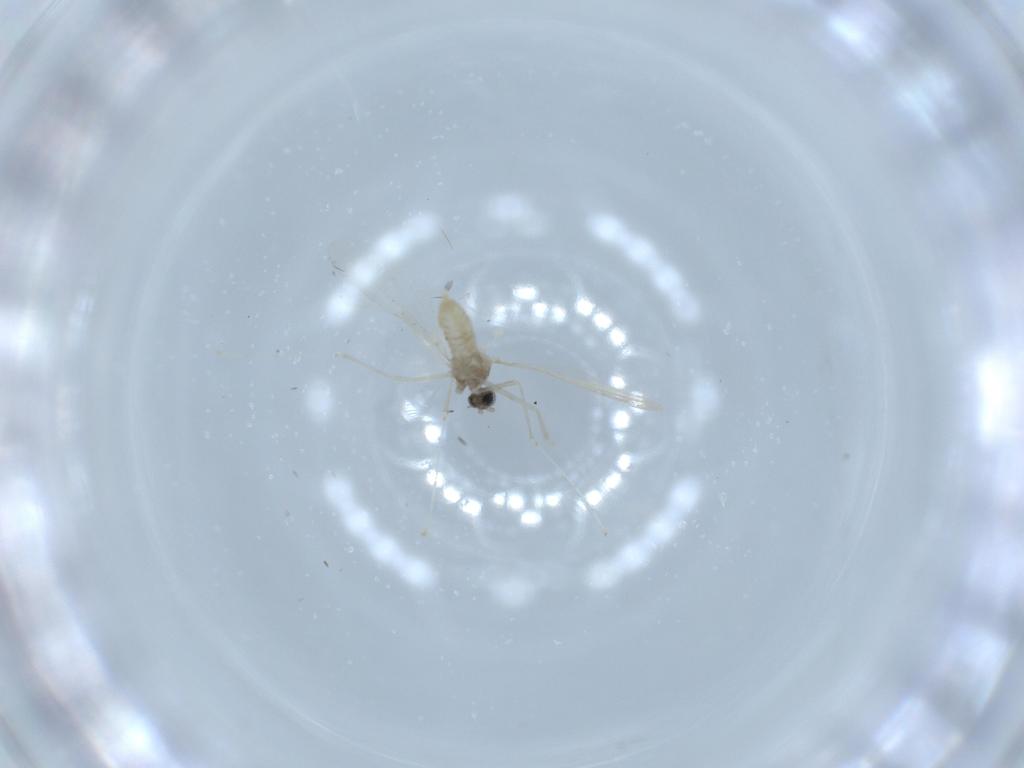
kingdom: Animalia
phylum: Arthropoda
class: Insecta
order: Diptera
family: Cecidomyiidae
